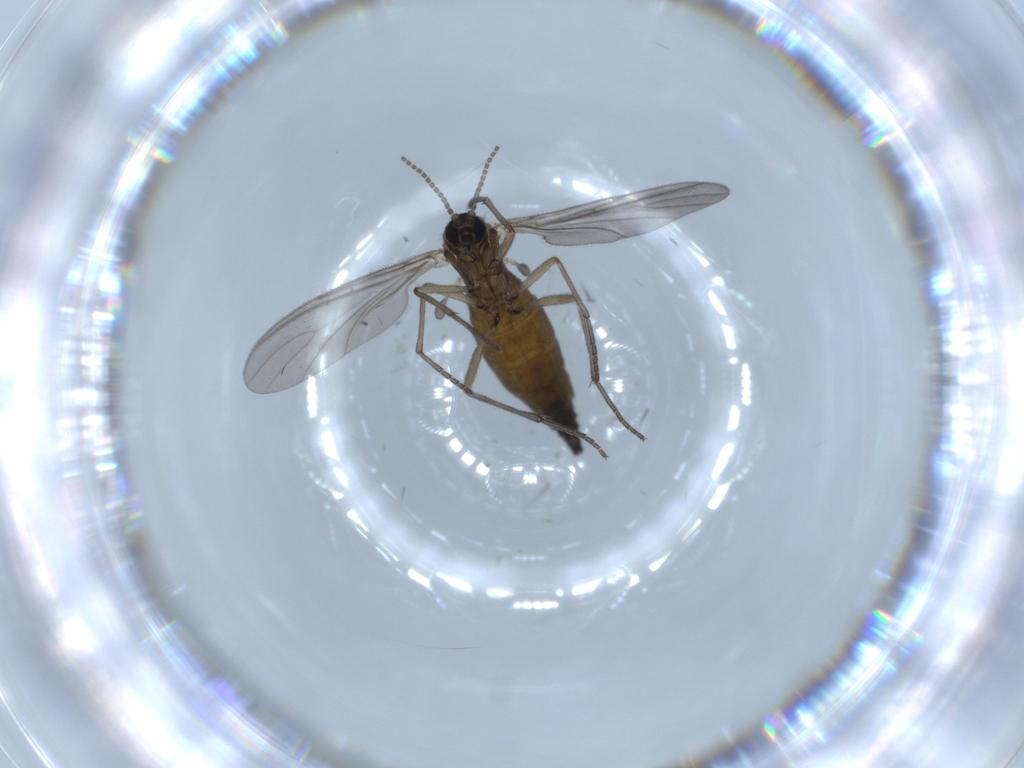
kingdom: Animalia
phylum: Arthropoda
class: Insecta
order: Diptera
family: Sciaridae
